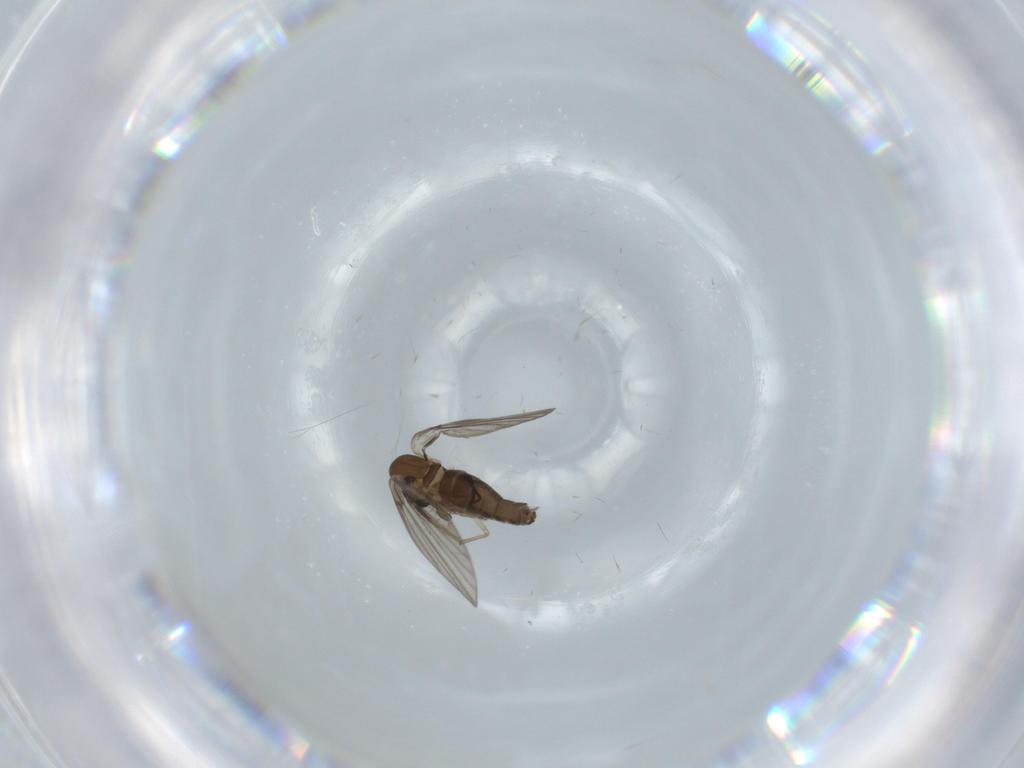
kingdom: Animalia
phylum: Arthropoda
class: Insecta
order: Diptera
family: Psychodidae
